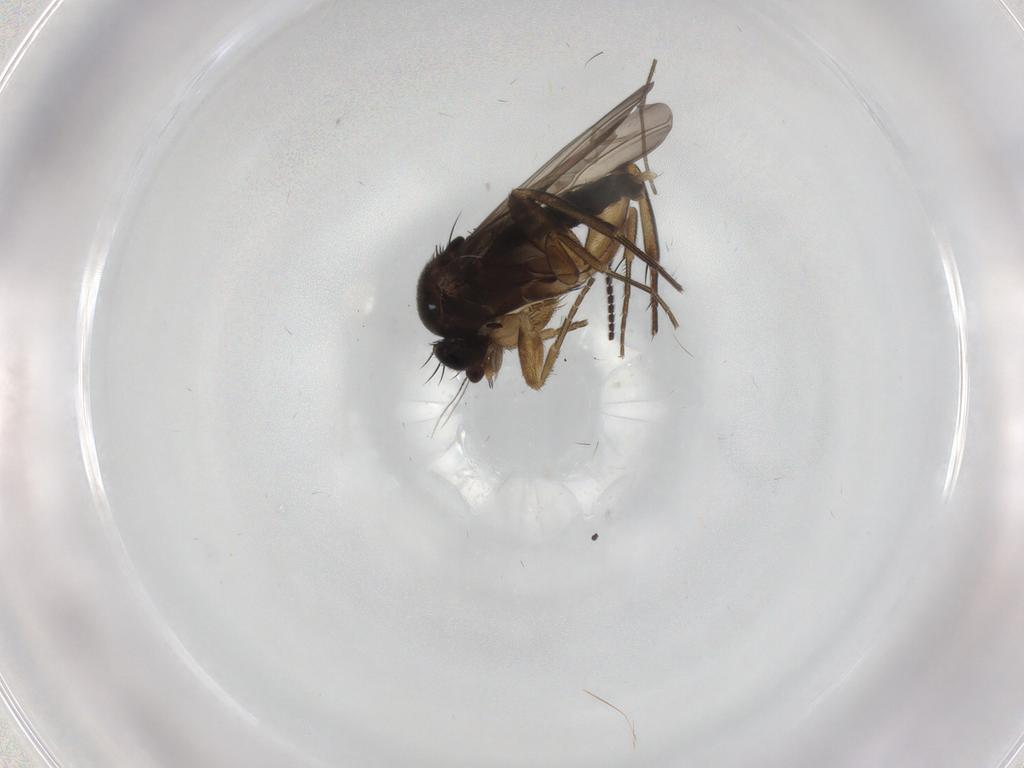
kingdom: Animalia
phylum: Arthropoda
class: Insecta
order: Diptera
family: Phoridae
